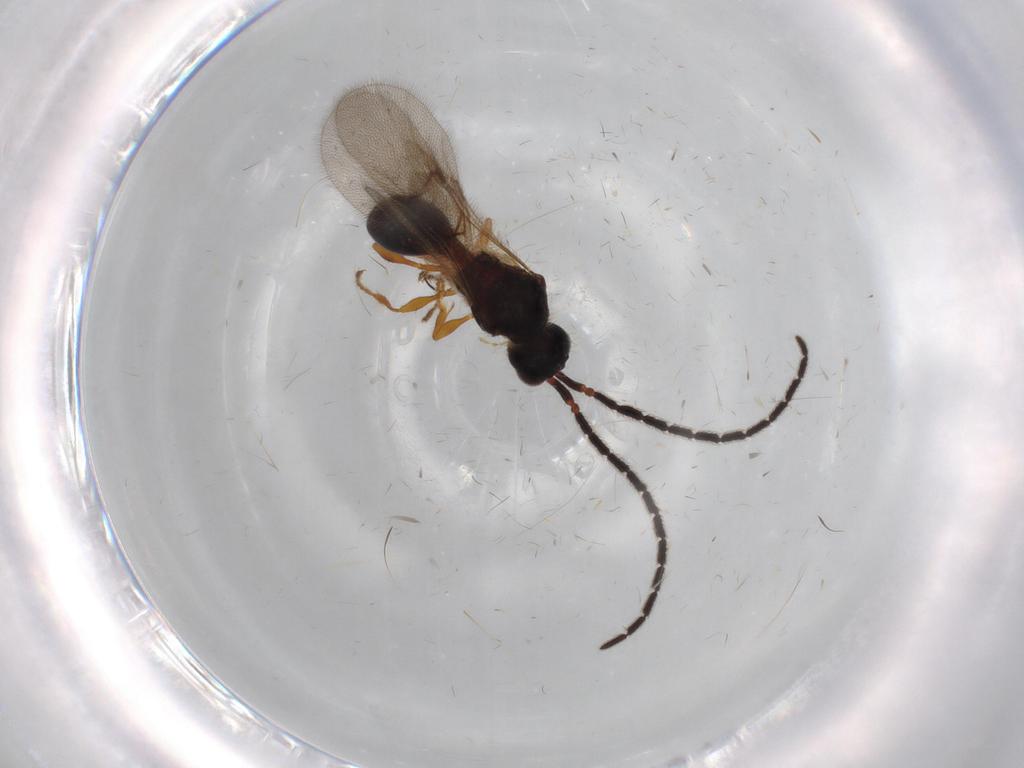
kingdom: Animalia
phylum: Arthropoda
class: Insecta
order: Hymenoptera
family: Diapriidae
